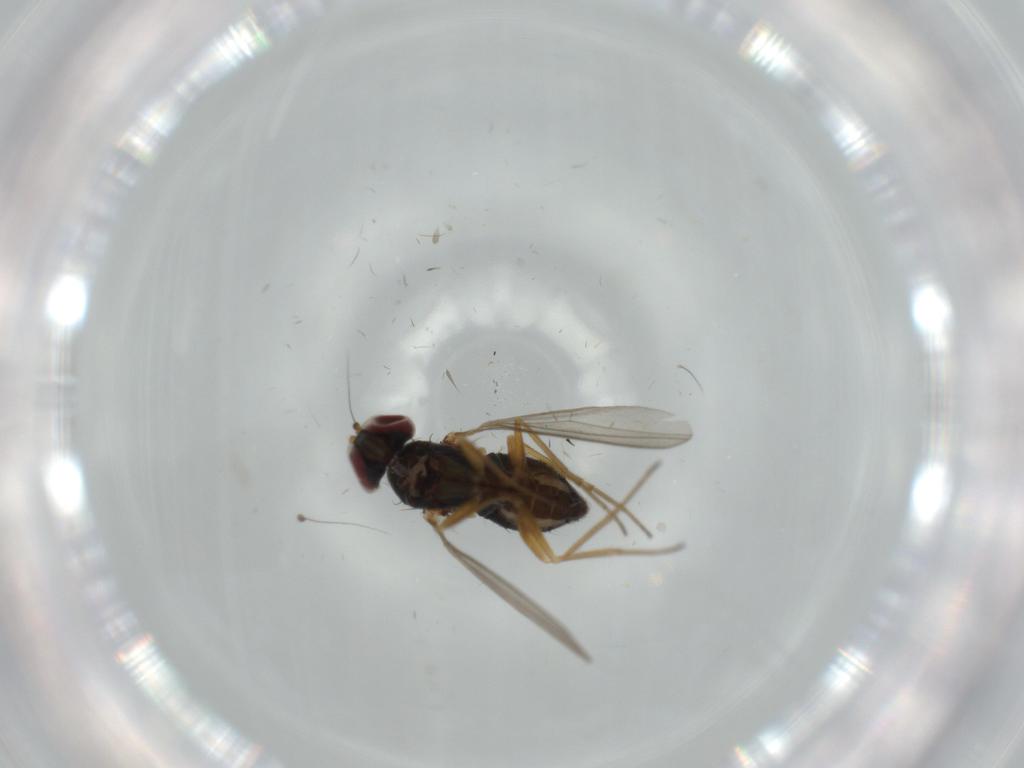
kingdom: Animalia
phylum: Arthropoda
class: Insecta
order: Diptera
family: Dolichopodidae
